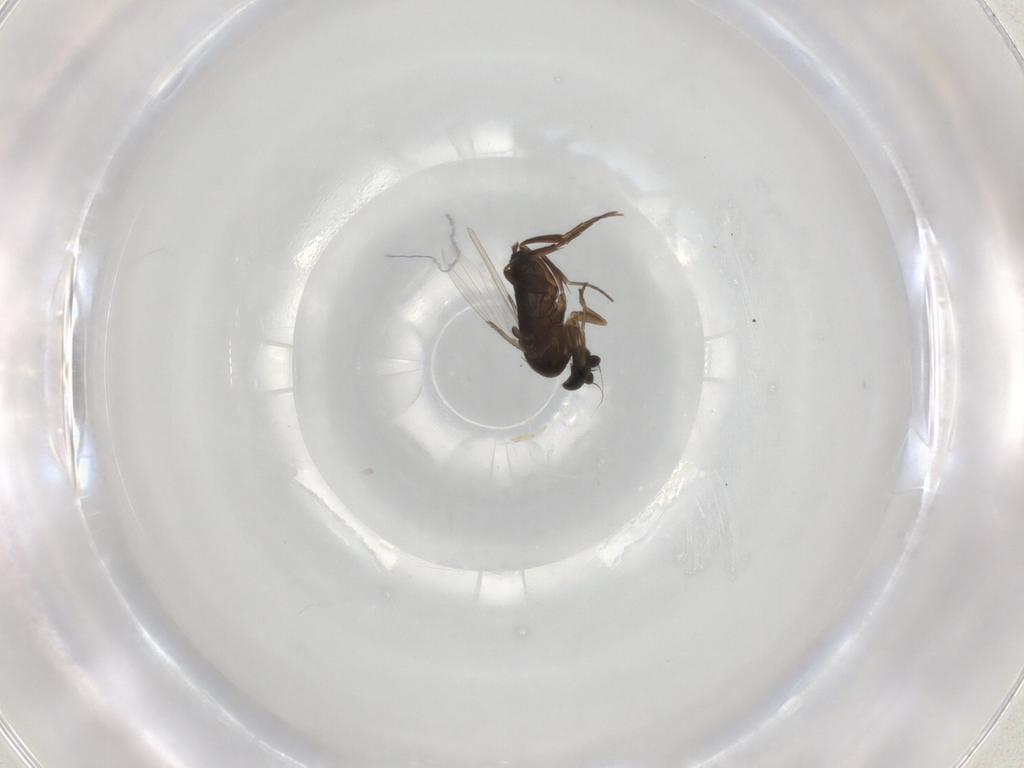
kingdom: Animalia
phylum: Arthropoda
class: Insecta
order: Diptera
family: Phoridae
